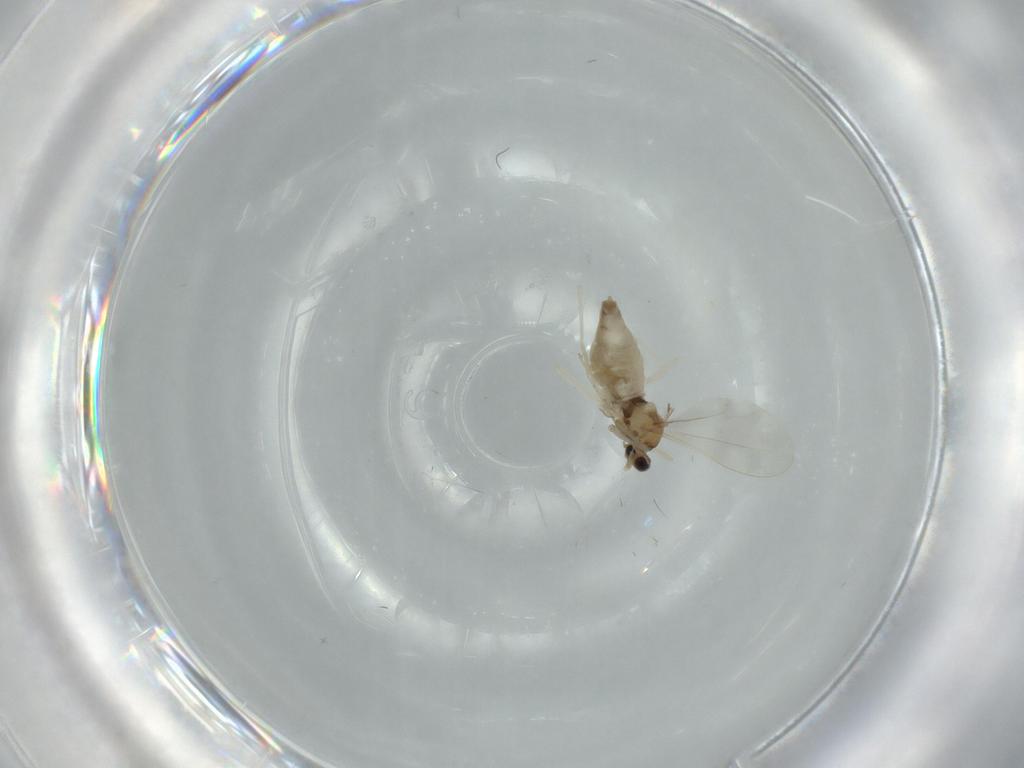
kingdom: Animalia
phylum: Arthropoda
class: Insecta
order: Diptera
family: Cecidomyiidae
